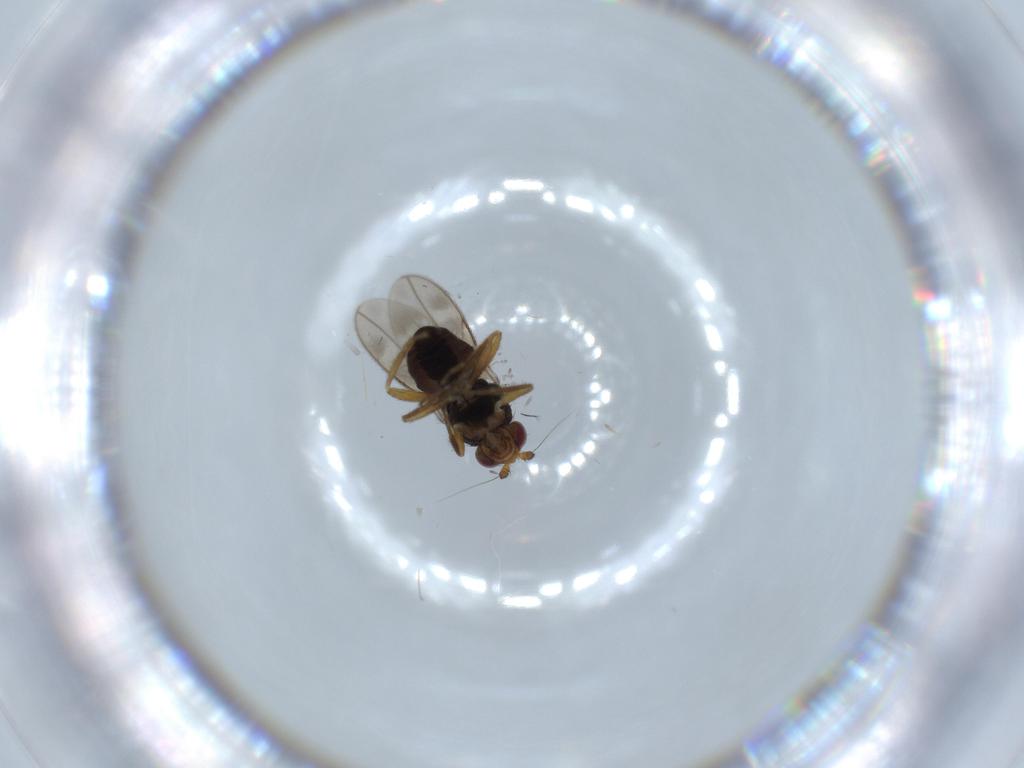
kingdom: Animalia
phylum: Arthropoda
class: Insecta
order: Diptera
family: Sphaeroceridae
